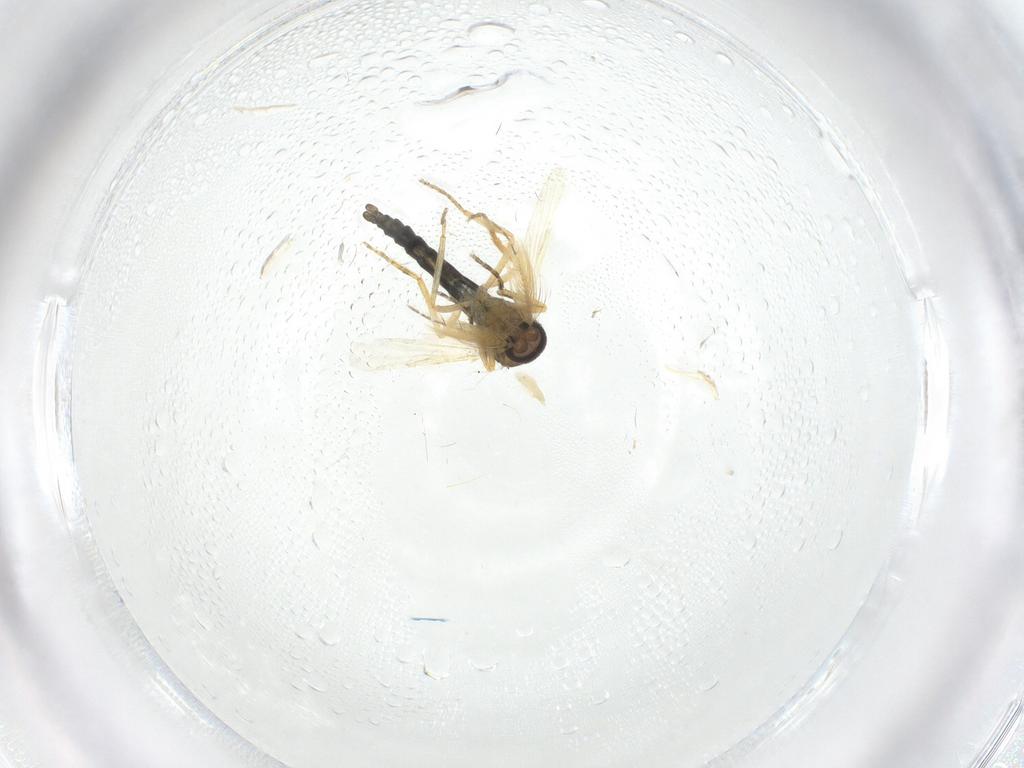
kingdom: Animalia
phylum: Arthropoda
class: Insecta
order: Diptera
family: Ceratopogonidae
